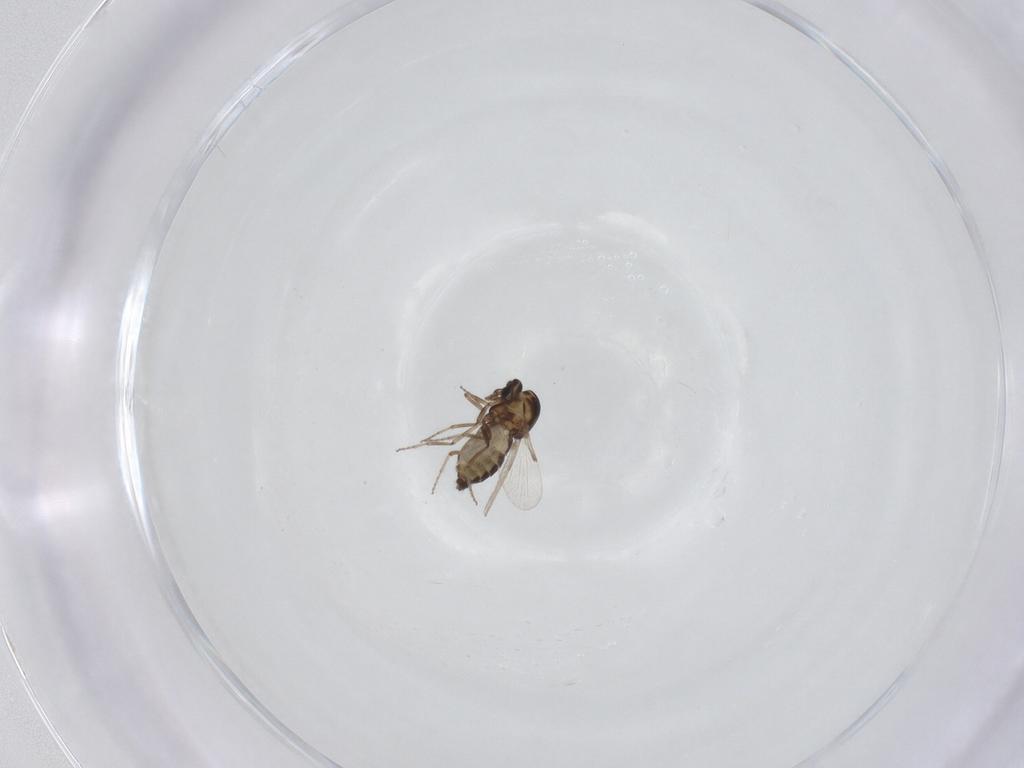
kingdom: Animalia
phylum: Arthropoda
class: Insecta
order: Diptera
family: Ceratopogonidae
